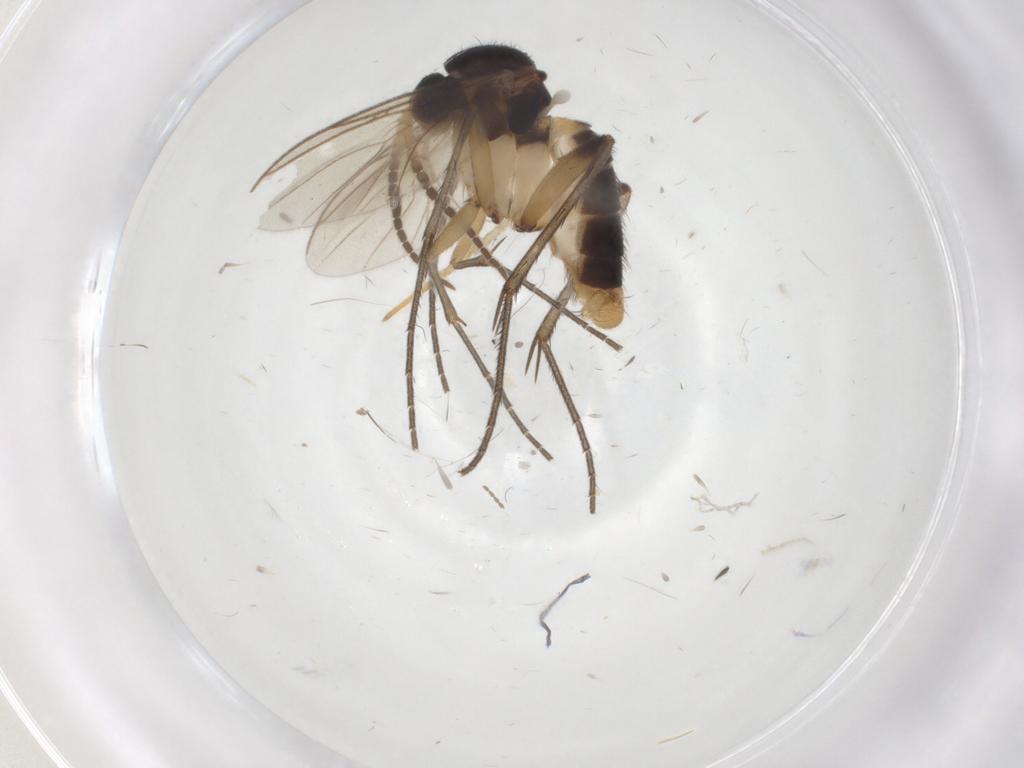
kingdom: Animalia
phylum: Arthropoda
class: Insecta
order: Diptera
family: Mycetophilidae
